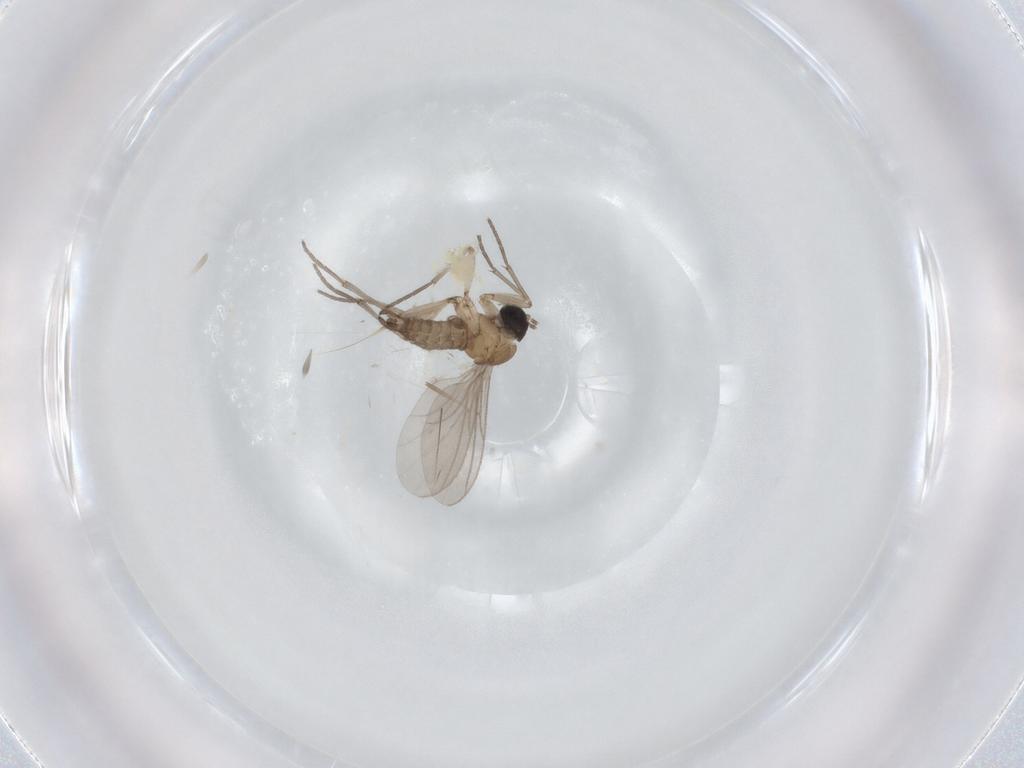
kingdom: Animalia
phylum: Arthropoda
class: Insecta
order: Diptera
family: Sciaridae
